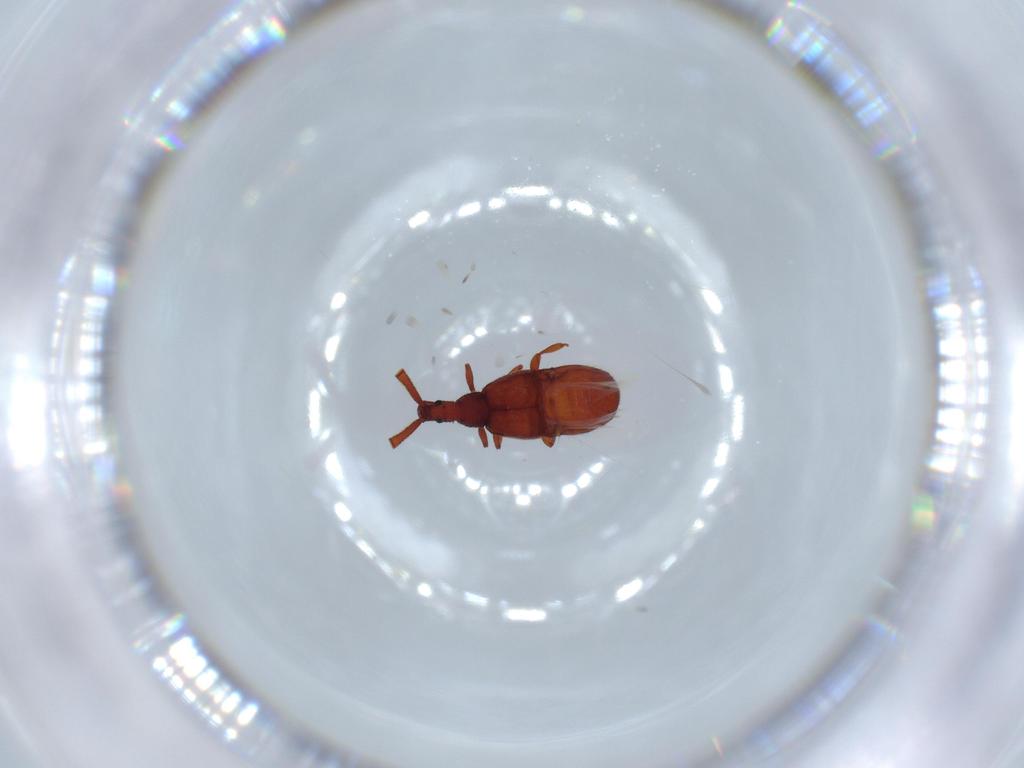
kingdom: Animalia
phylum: Arthropoda
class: Insecta
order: Coleoptera
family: Staphylinidae
